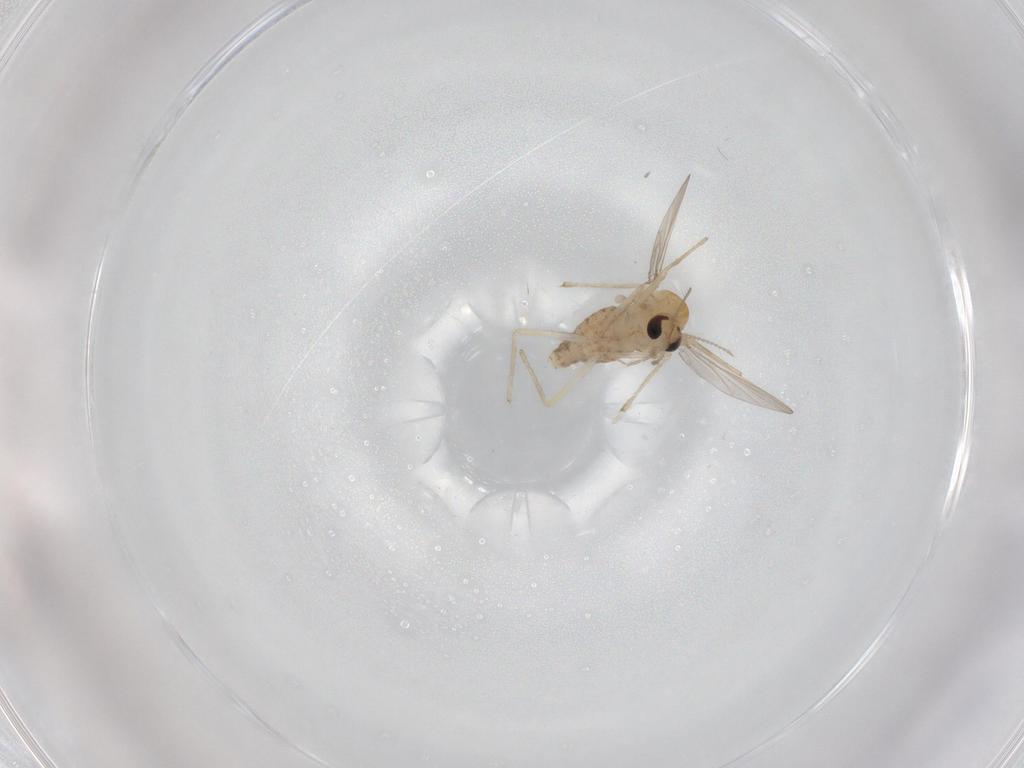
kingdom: Animalia
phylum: Arthropoda
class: Insecta
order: Diptera
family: Chironomidae
